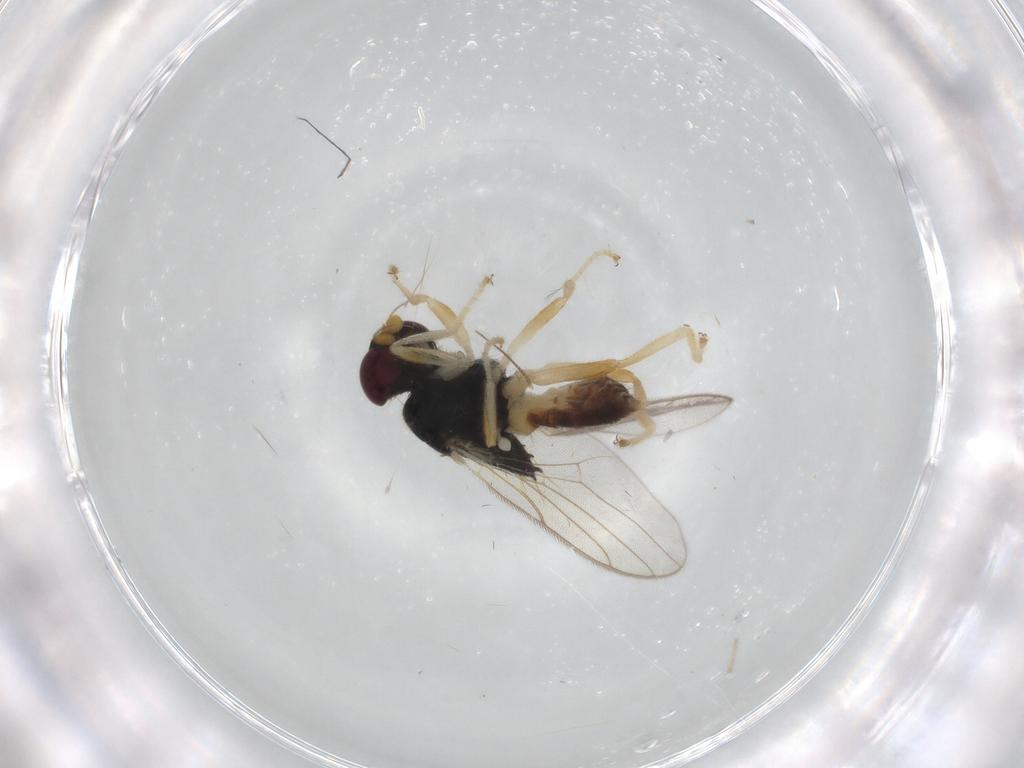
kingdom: Animalia
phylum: Arthropoda
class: Insecta
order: Diptera
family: Chloropidae
